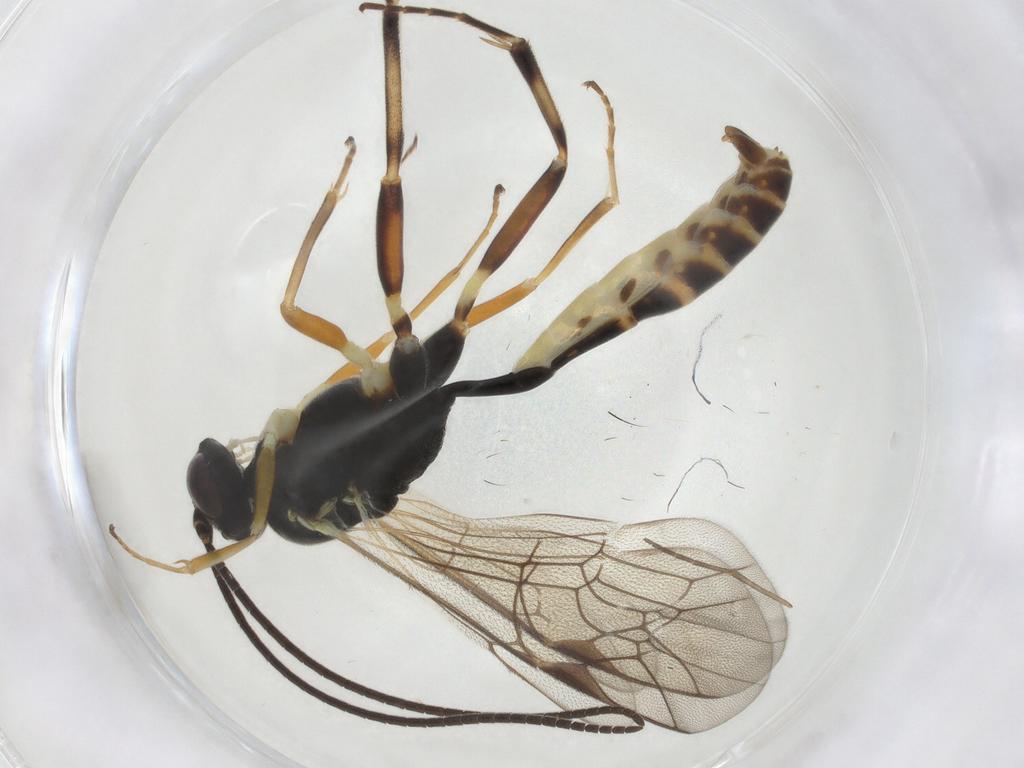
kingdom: Animalia
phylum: Arthropoda
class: Insecta
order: Hymenoptera
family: Ichneumonidae
